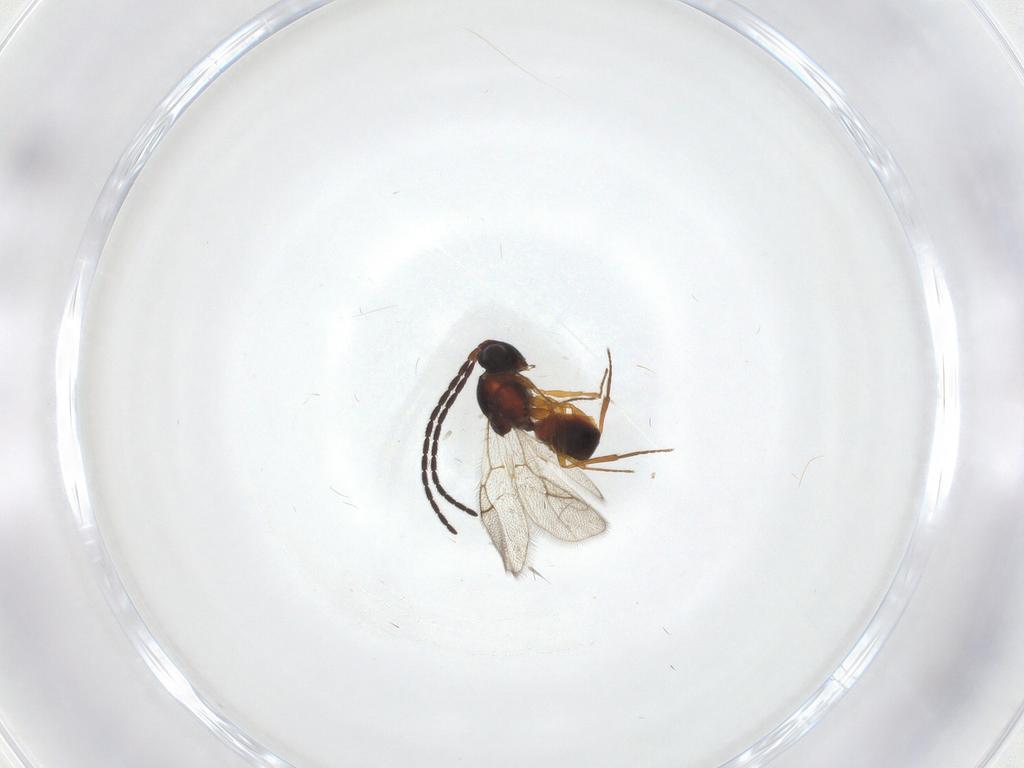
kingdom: Animalia
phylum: Arthropoda
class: Insecta
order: Hymenoptera
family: Figitidae
